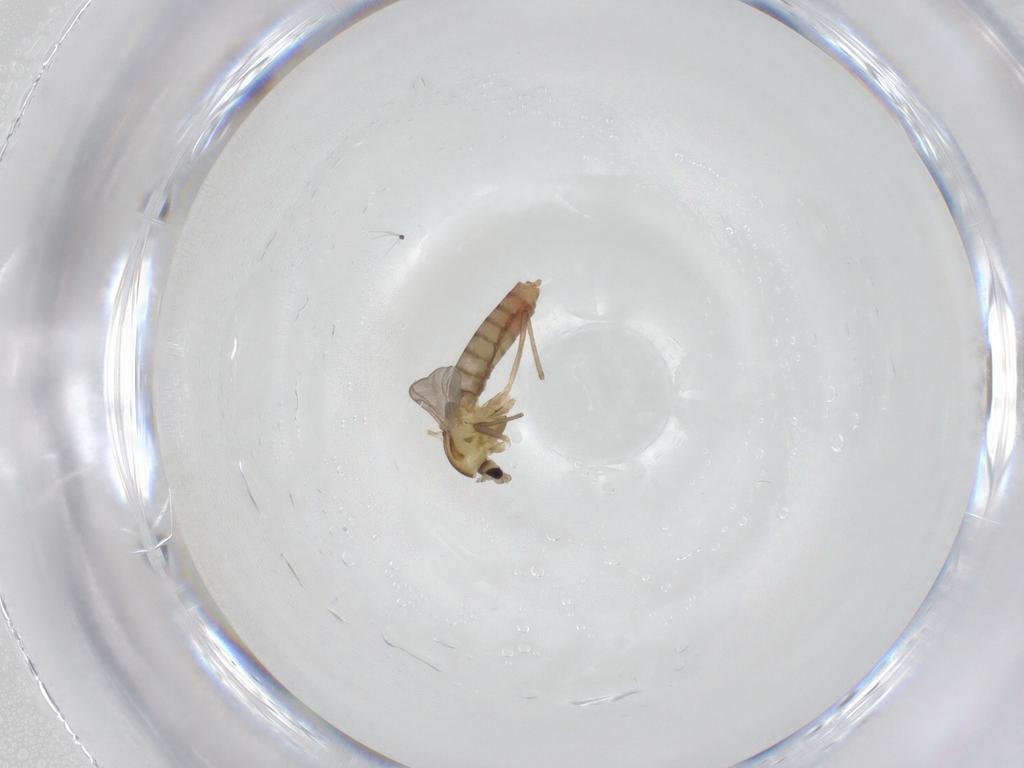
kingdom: Animalia
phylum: Arthropoda
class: Insecta
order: Diptera
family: Chironomidae
